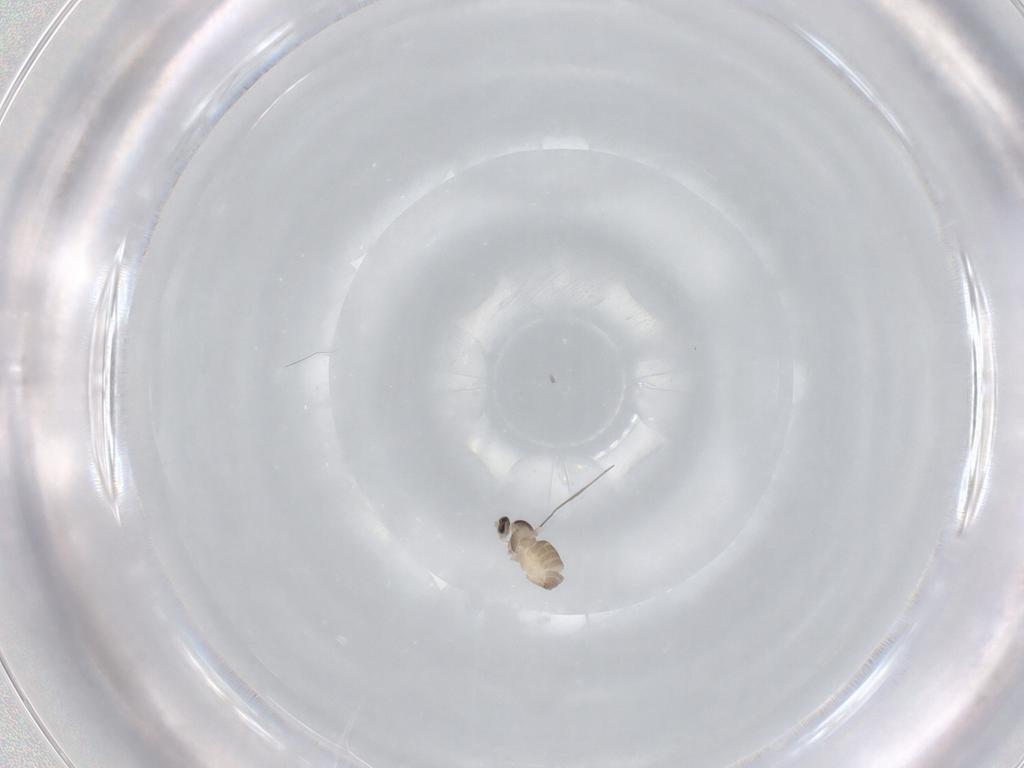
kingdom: Animalia
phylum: Arthropoda
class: Insecta
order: Diptera
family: Cecidomyiidae
